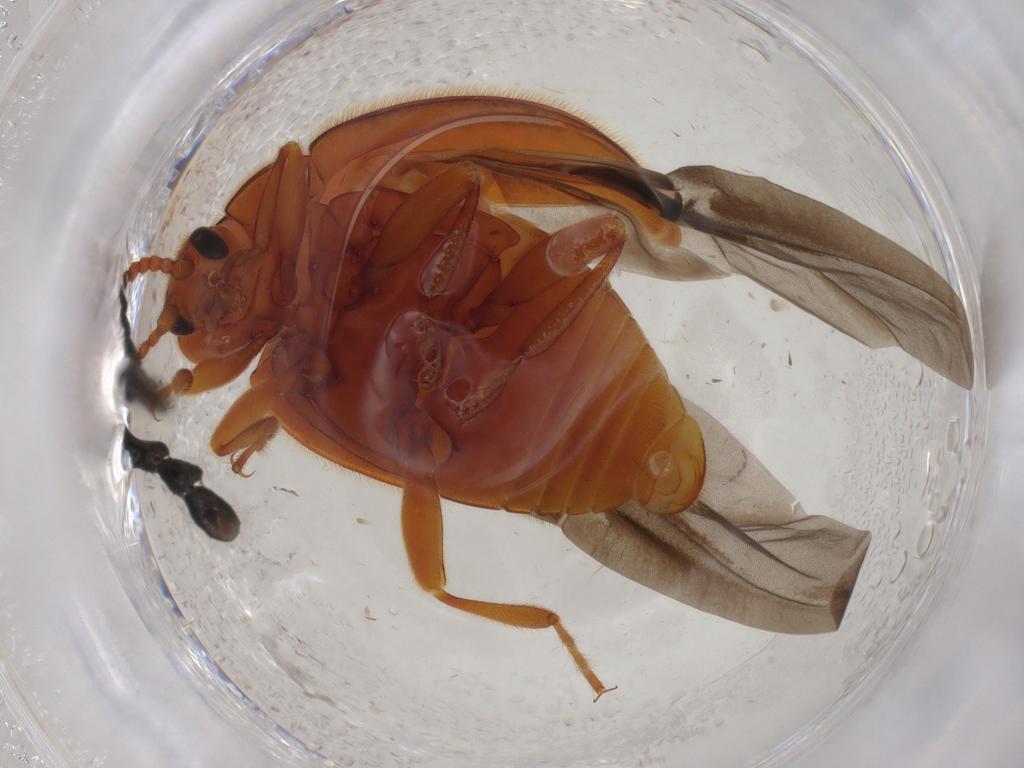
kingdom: Animalia
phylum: Arthropoda
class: Insecta
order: Coleoptera
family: Endomychidae
